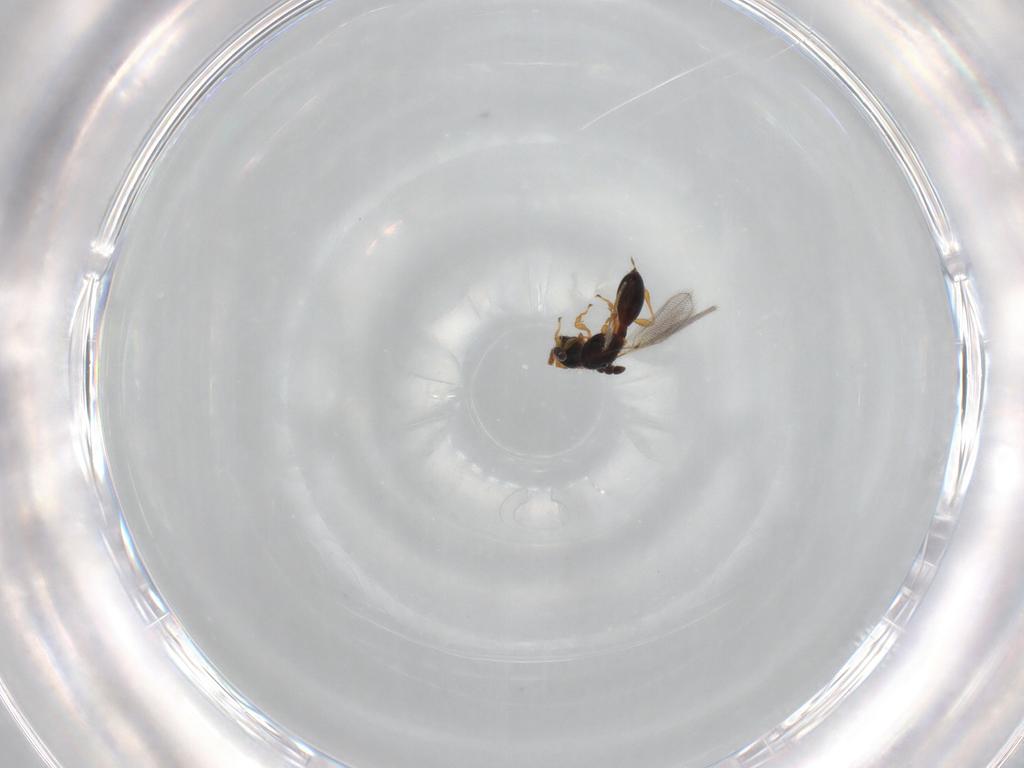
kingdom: Animalia
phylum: Arthropoda
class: Insecta
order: Hymenoptera
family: Diapriidae
